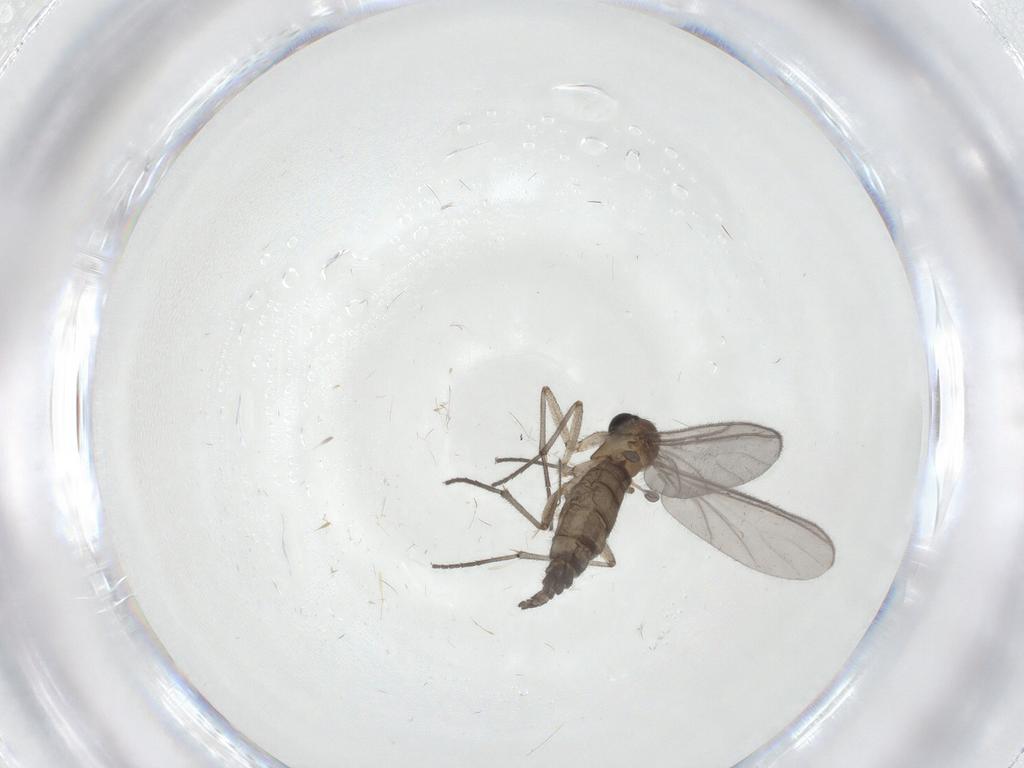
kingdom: Animalia
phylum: Arthropoda
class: Insecta
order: Diptera
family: Cecidomyiidae
